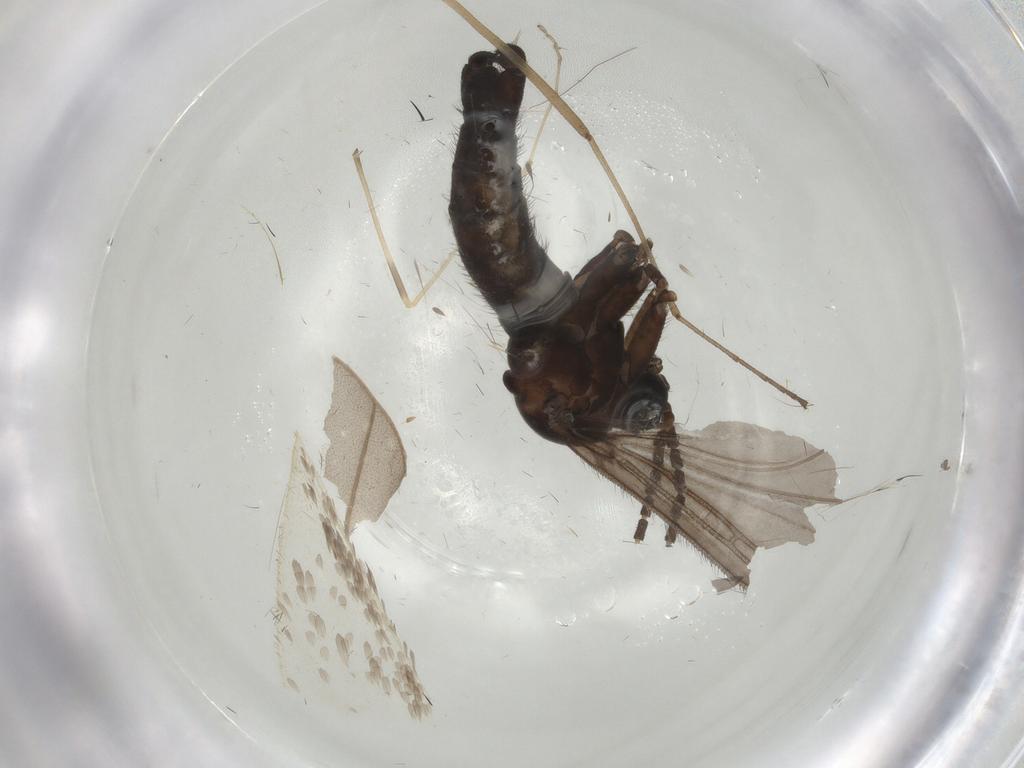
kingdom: Animalia
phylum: Arthropoda
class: Insecta
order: Diptera
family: Sciaridae
